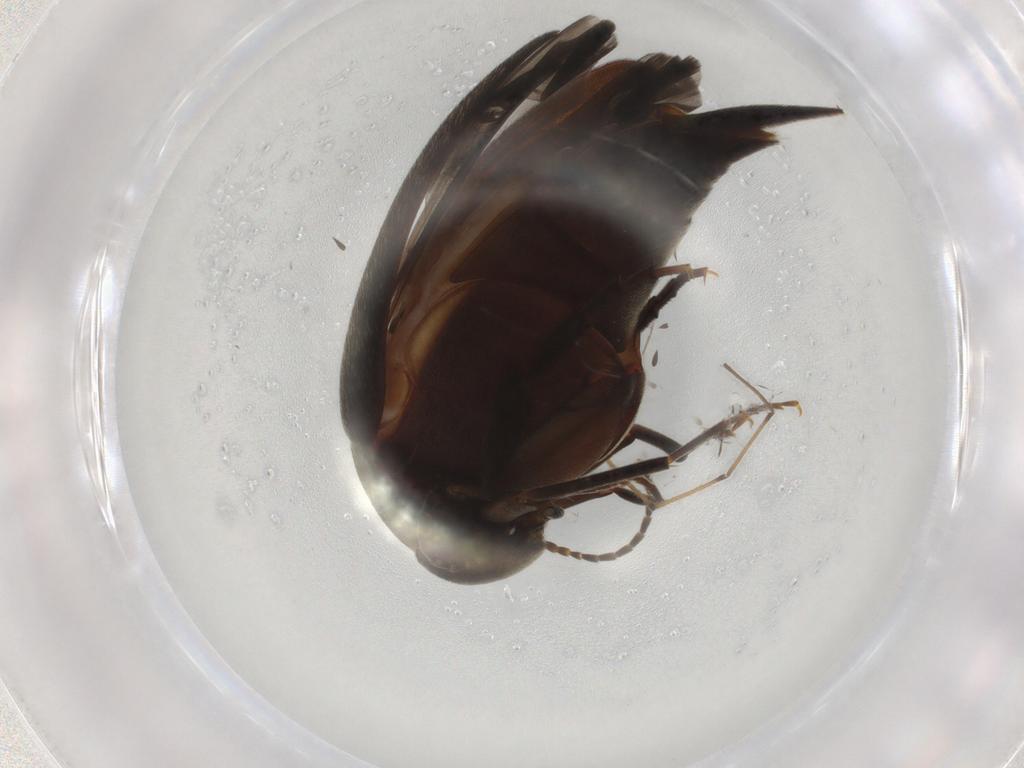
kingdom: Animalia
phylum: Arthropoda
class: Insecta
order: Coleoptera
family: Mordellidae
